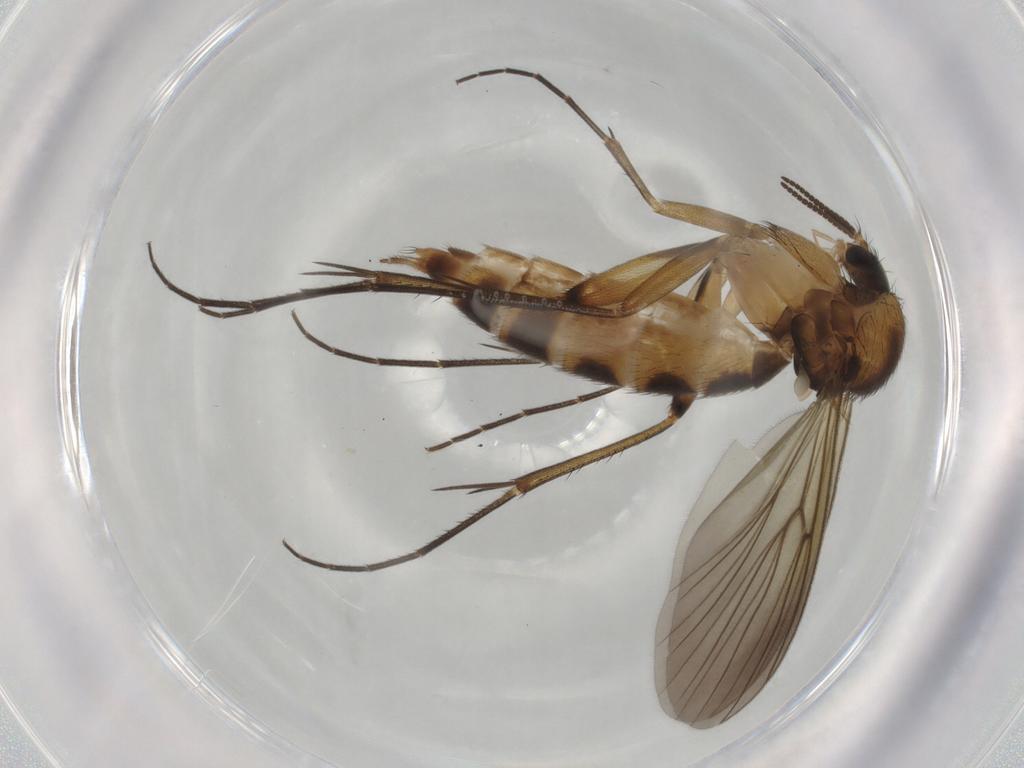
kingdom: Animalia
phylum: Arthropoda
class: Insecta
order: Diptera
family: Mycetophilidae
